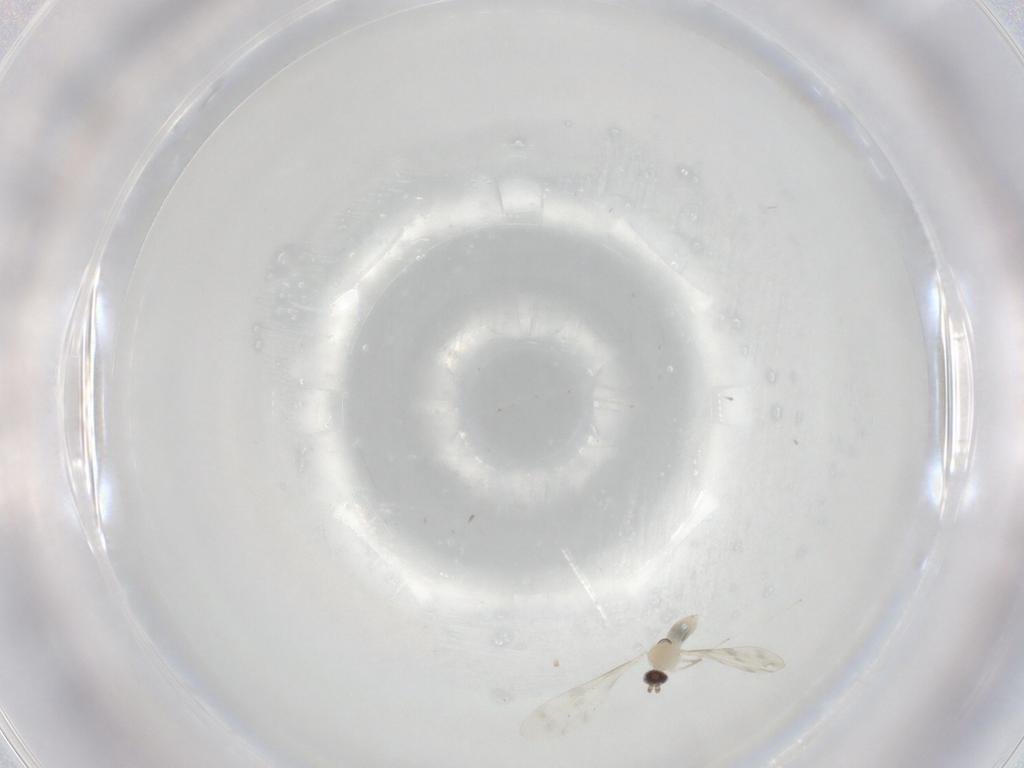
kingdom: Animalia
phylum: Arthropoda
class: Insecta
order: Diptera
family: Cecidomyiidae
